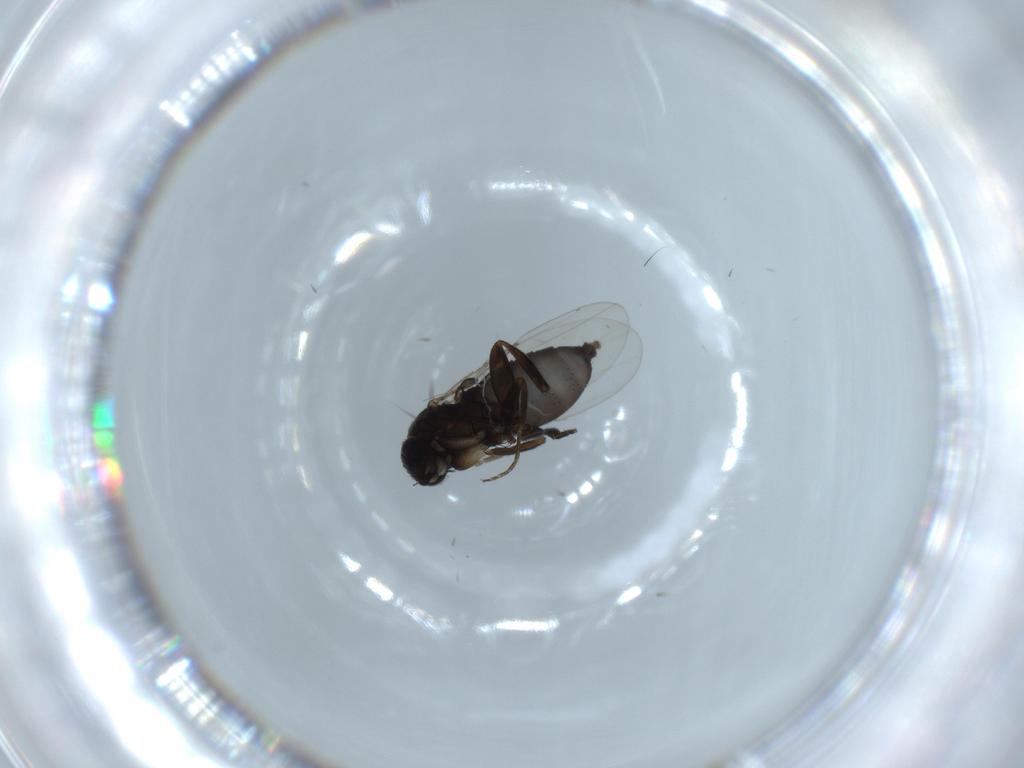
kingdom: Animalia
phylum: Arthropoda
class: Insecta
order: Diptera
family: Phoridae
